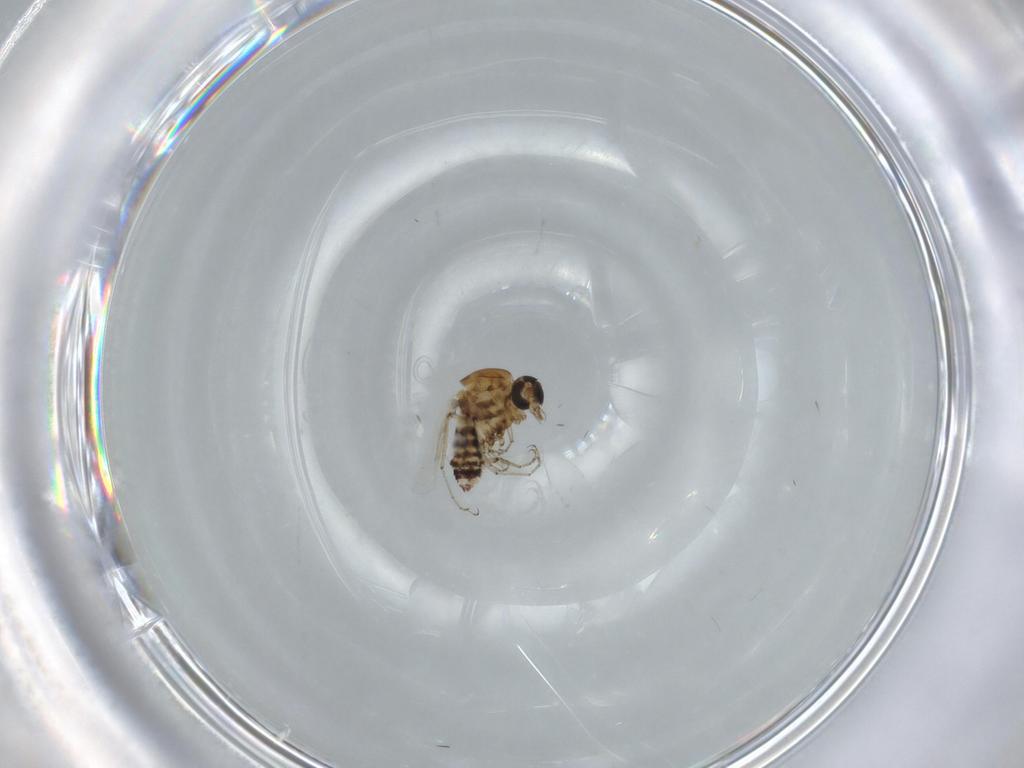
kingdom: Animalia
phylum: Arthropoda
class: Insecta
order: Diptera
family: Ceratopogonidae
